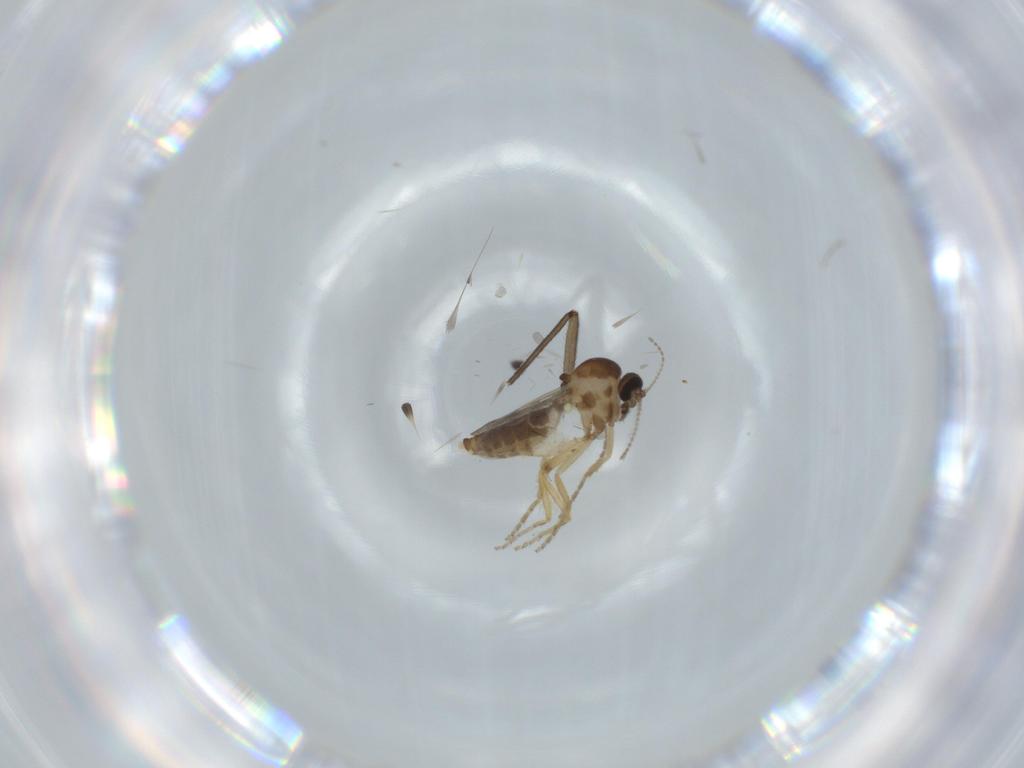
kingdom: Animalia
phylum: Arthropoda
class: Insecta
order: Diptera
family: Ceratopogonidae
